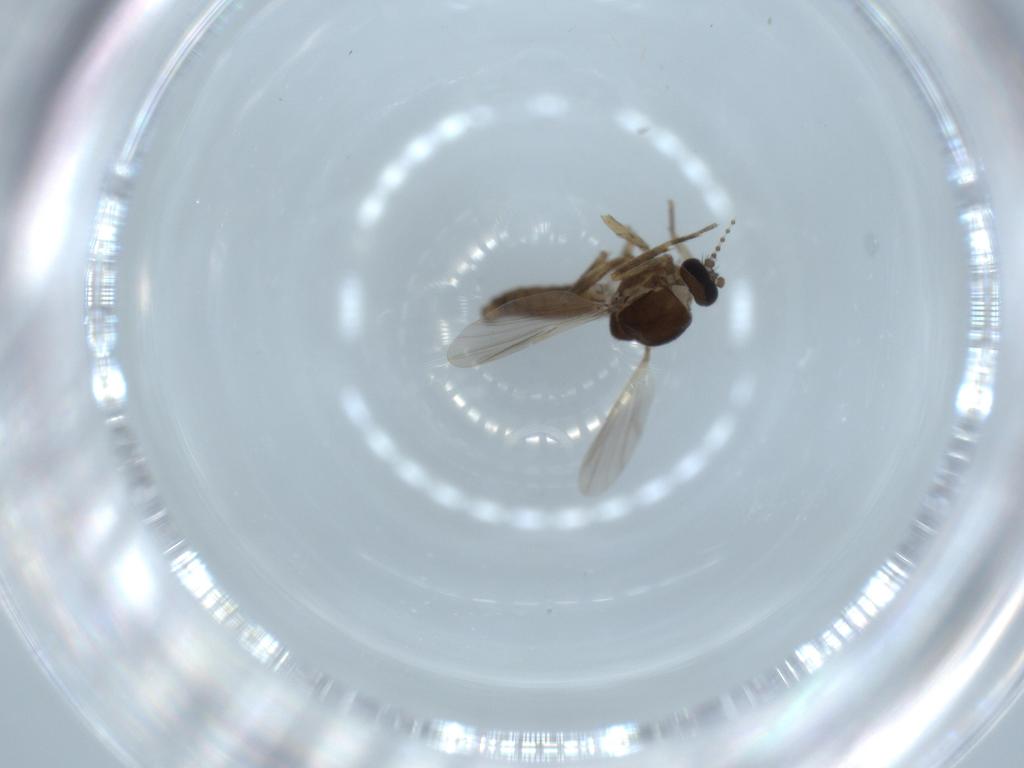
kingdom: Animalia
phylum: Arthropoda
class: Insecta
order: Diptera
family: Ceratopogonidae
